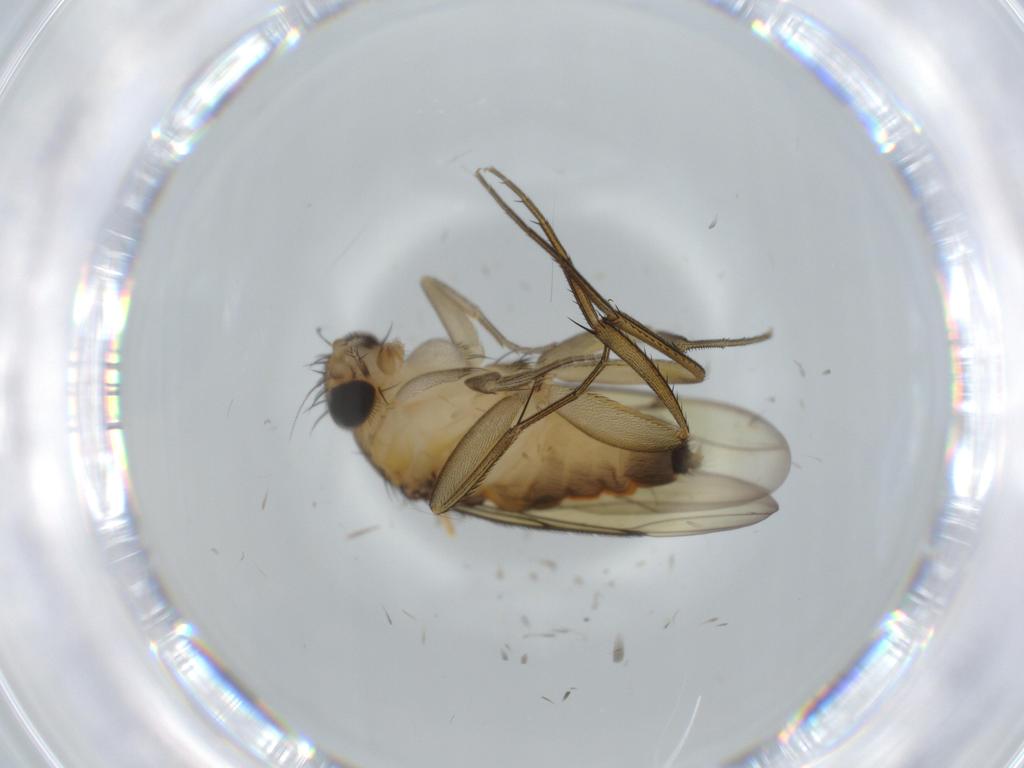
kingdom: Animalia
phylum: Arthropoda
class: Insecta
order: Diptera
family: Phoridae
